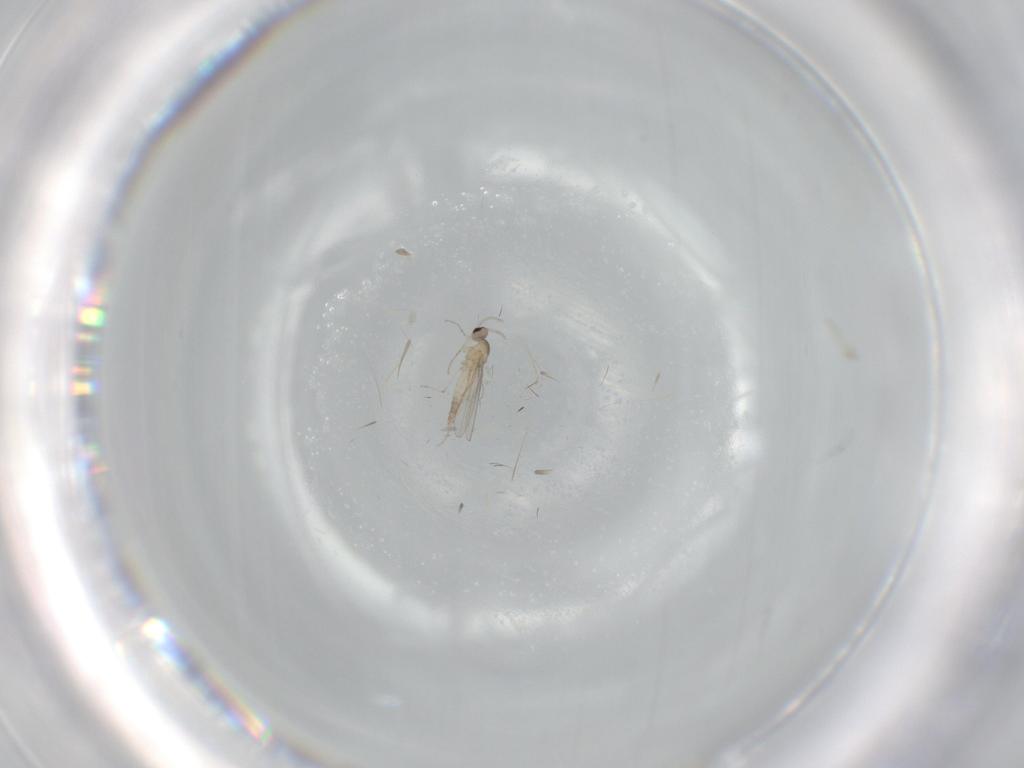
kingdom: Animalia
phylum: Arthropoda
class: Insecta
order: Diptera
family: Cecidomyiidae
